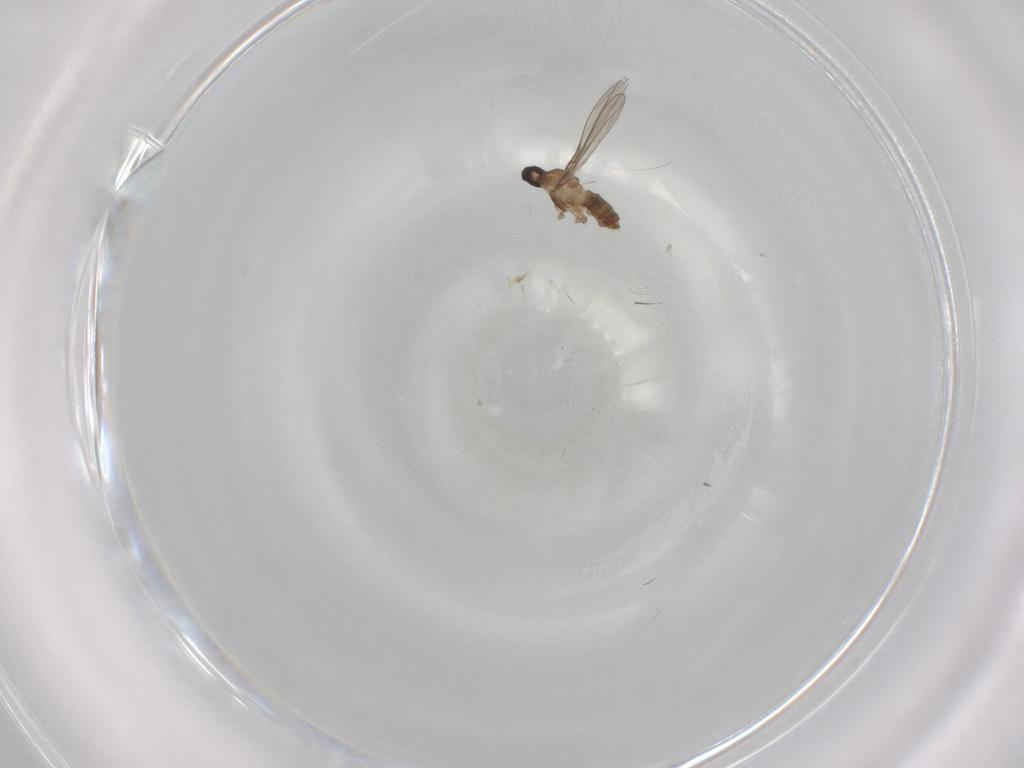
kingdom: Animalia
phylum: Arthropoda
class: Insecta
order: Diptera
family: Cecidomyiidae
